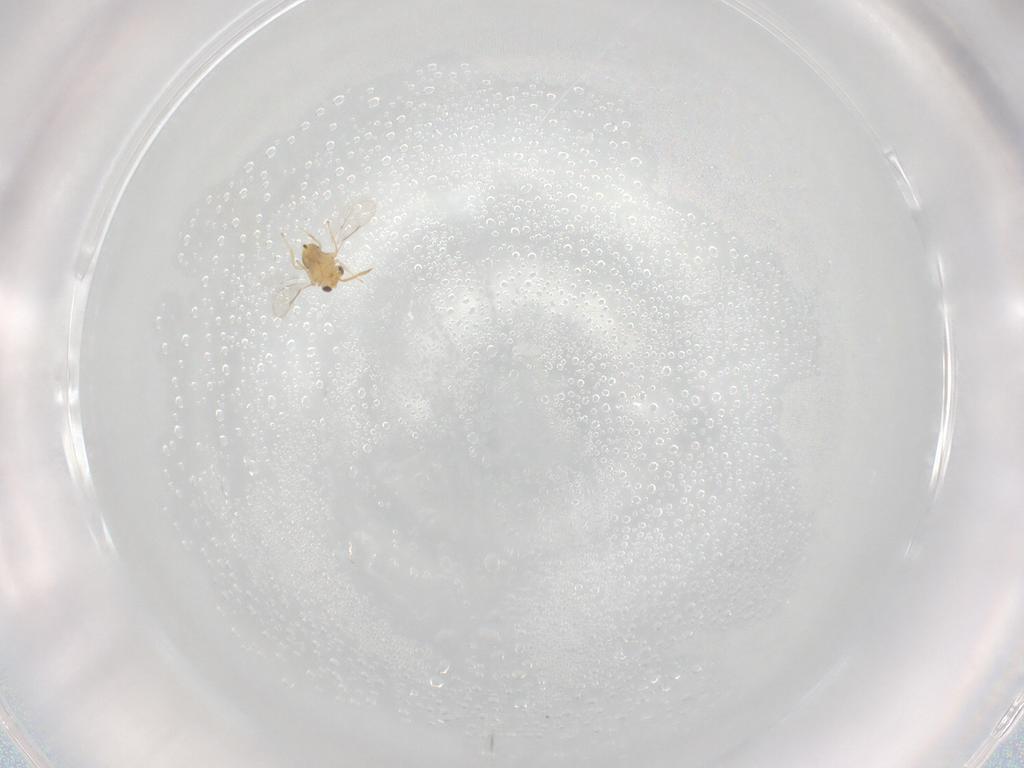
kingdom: Animalia
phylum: Arthropoda
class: Insecta
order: Hymenoptera
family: Aphelinidae
